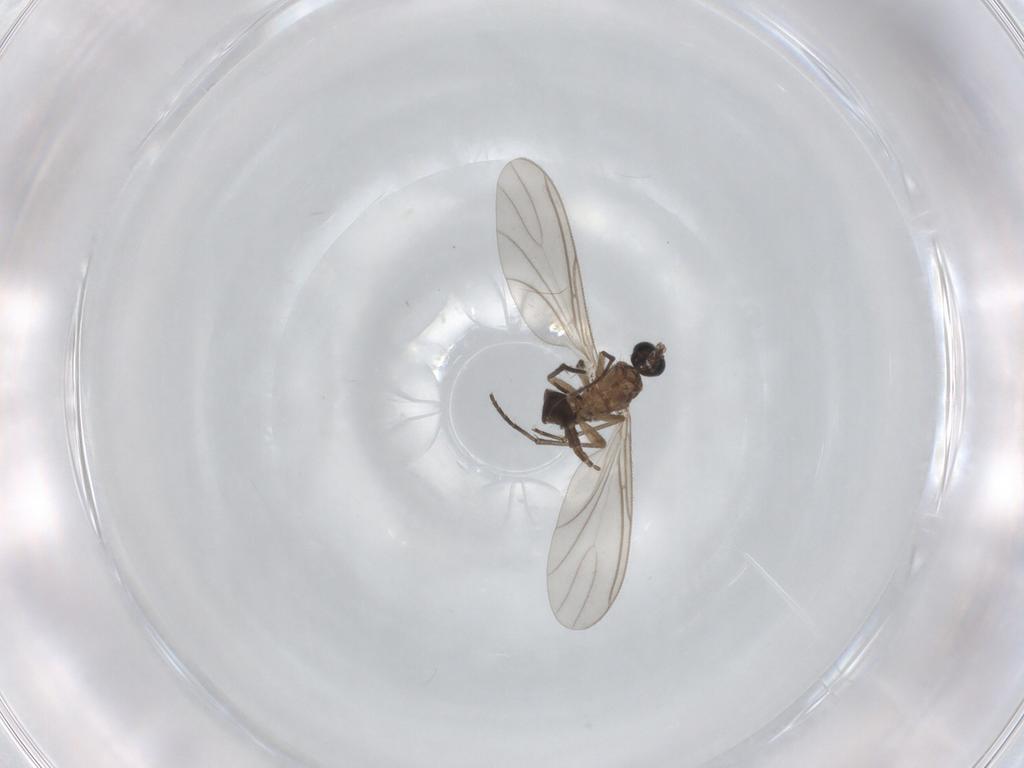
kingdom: Animalia
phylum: Arthropoda
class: Insecta
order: Diptera
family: Sciaridae
